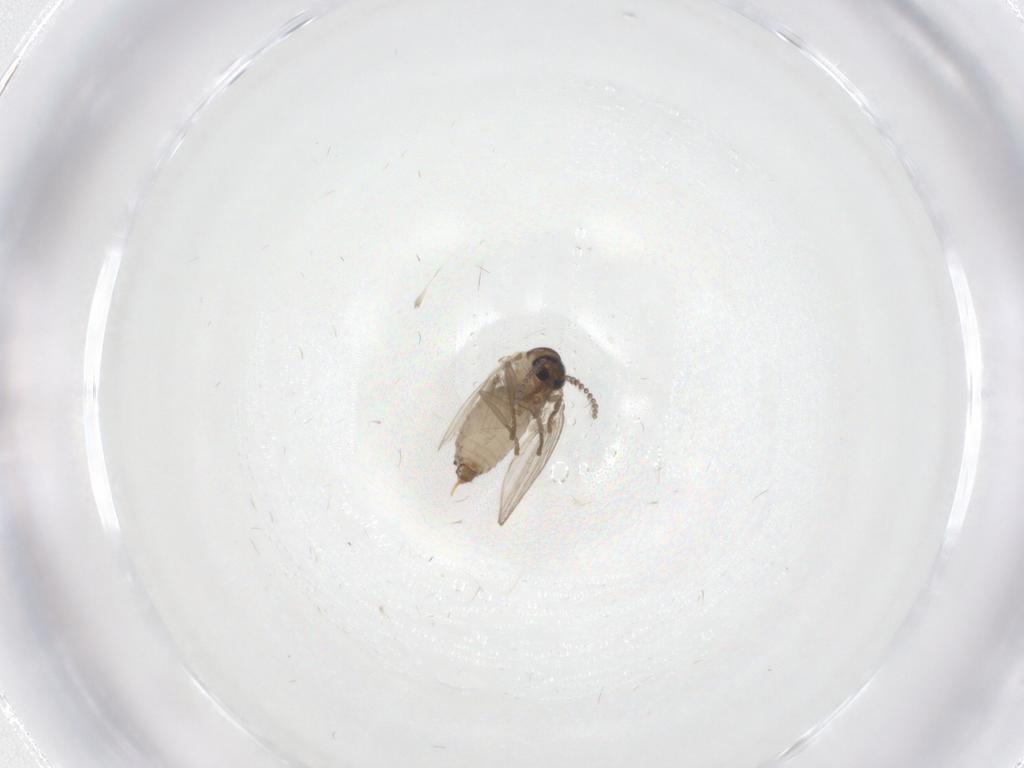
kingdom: Animalia
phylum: Arthropoda
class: Insecta
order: Diptera
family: Psychodidae
